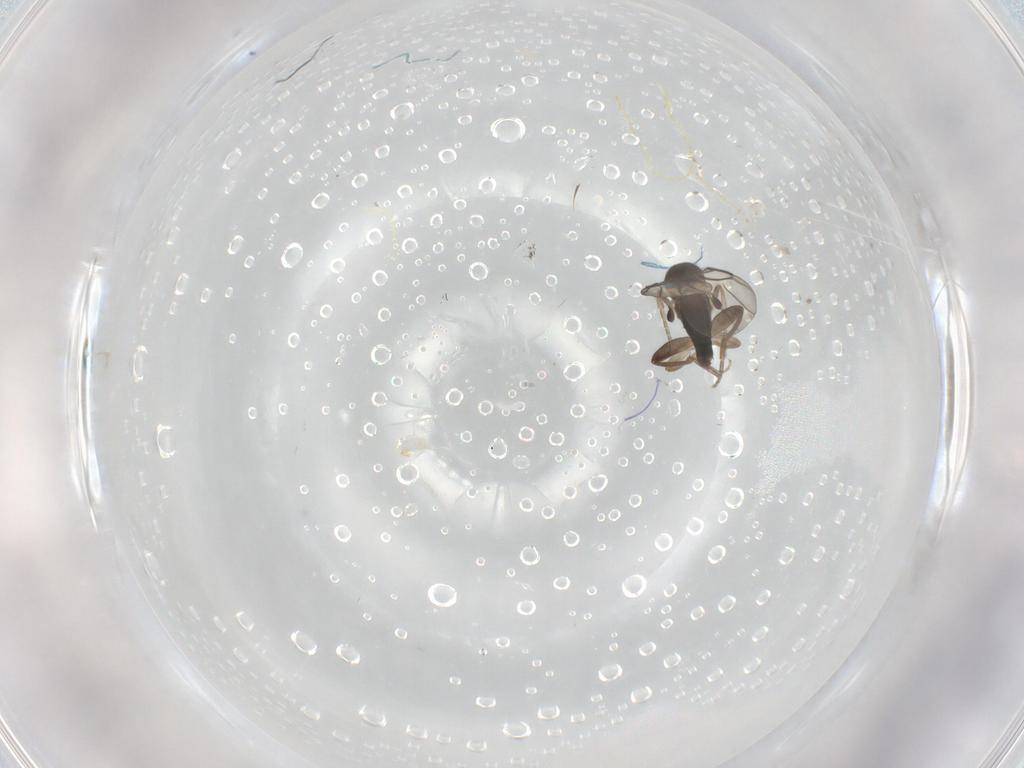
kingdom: Animalia
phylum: Arthropoda
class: Insecta
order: Diptera
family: Phoridae
